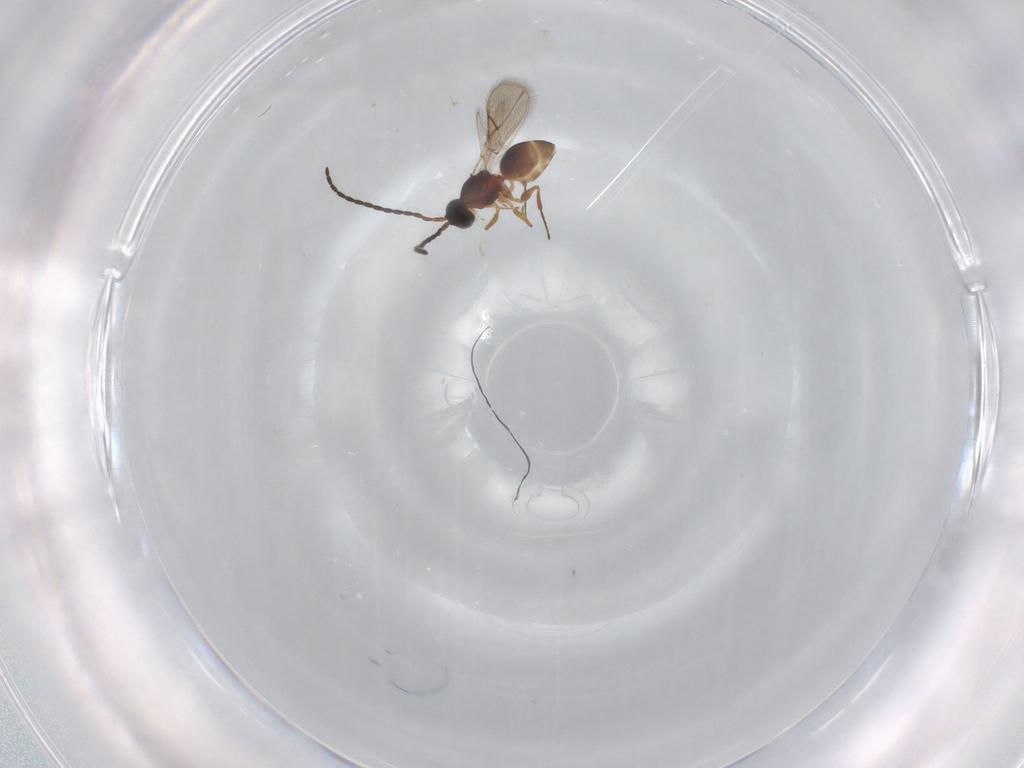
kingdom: Animalia
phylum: Arthropoda
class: Insecta
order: Hymenoptera
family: Figitidae
